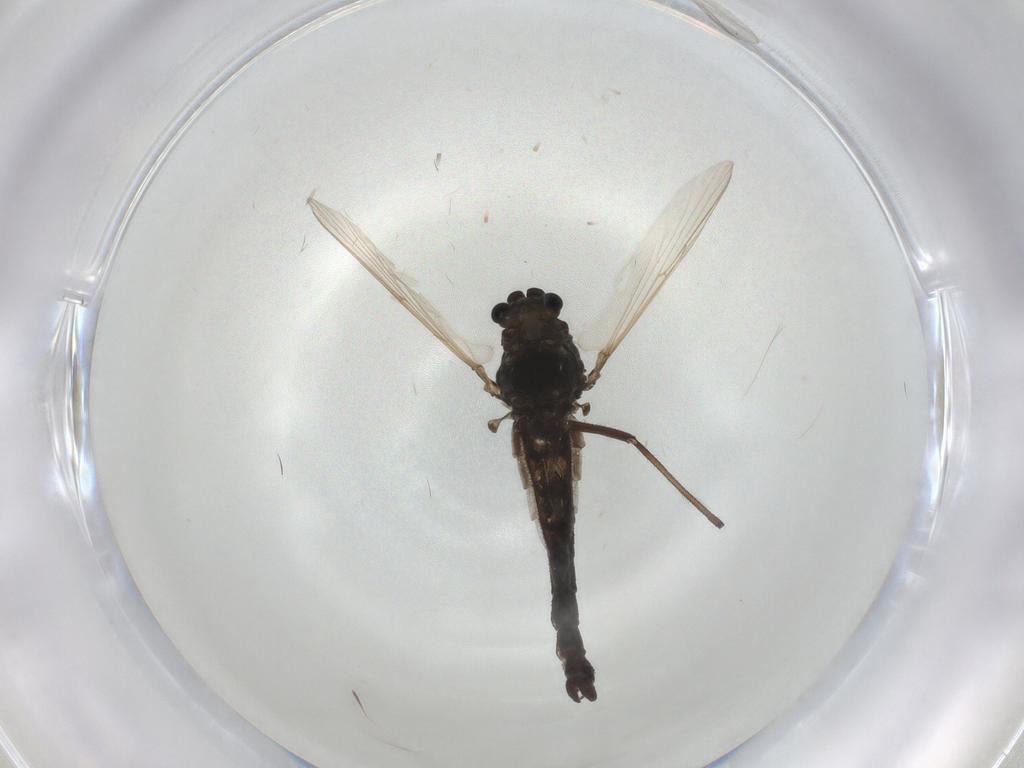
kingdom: Animalia
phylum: Arthropoda
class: Insecta
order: Diptera
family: Chironomidae
